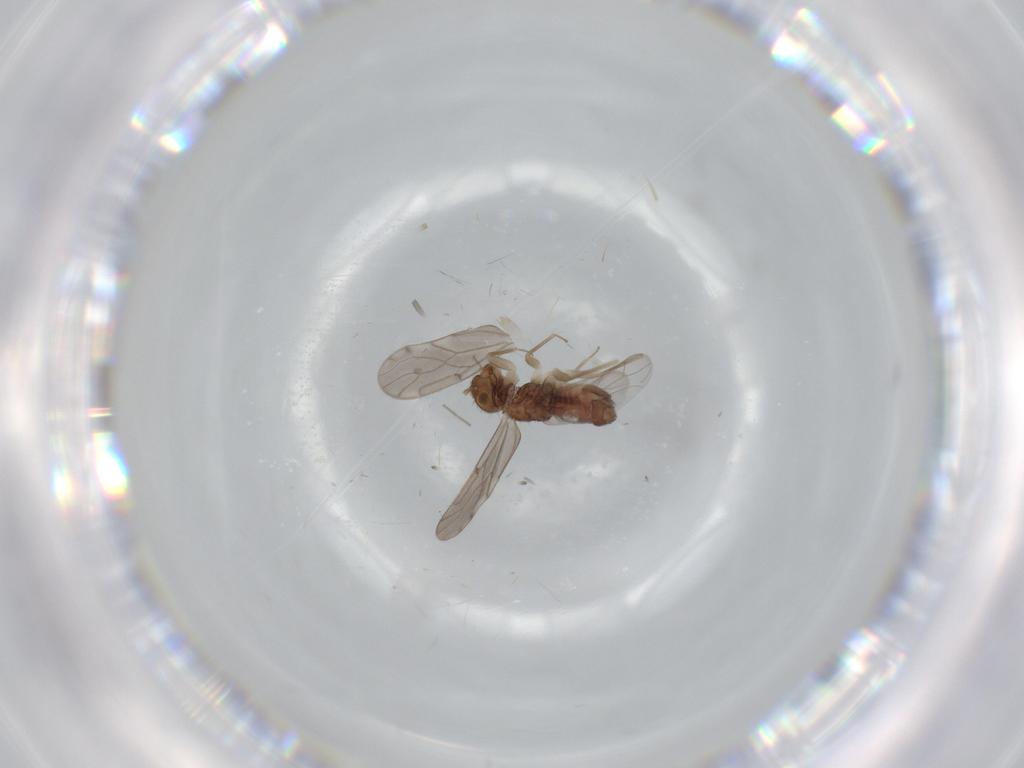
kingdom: Animalia
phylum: Arthropoda
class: Insecta
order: Psocodea
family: Ectopsocidae
